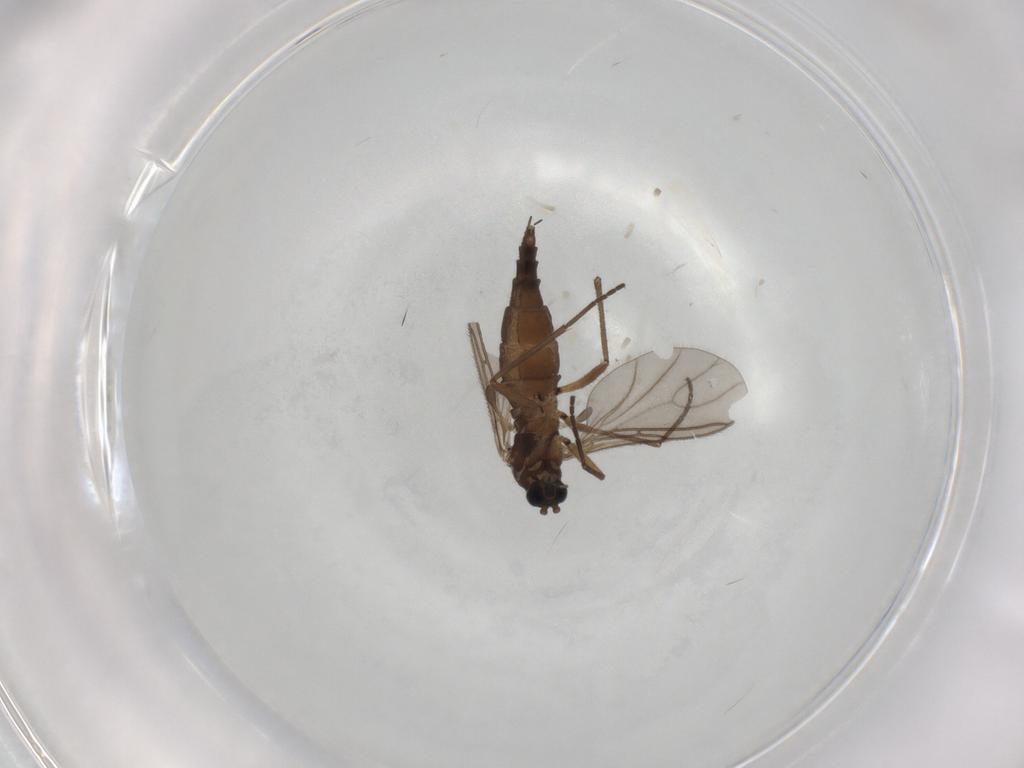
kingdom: Animalia
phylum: Arthropoda
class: Insecta
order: Diptera
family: Sciaridae
